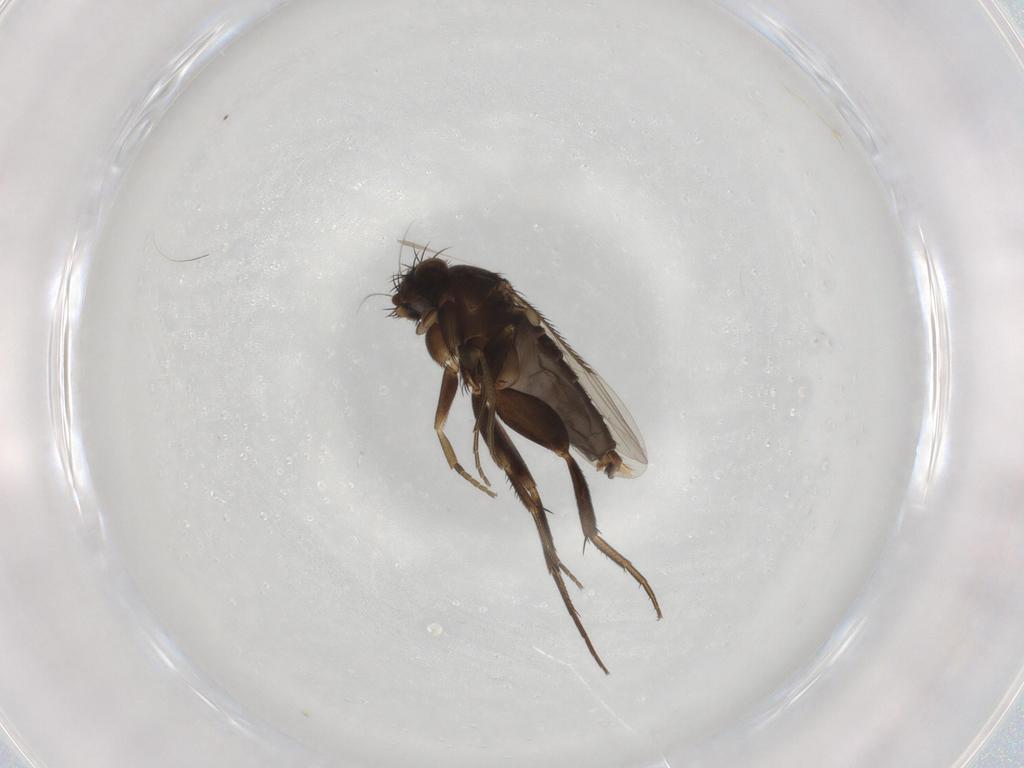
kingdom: Animalia
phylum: Arthropoda
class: Insecta
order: Diptera
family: Phoridae
